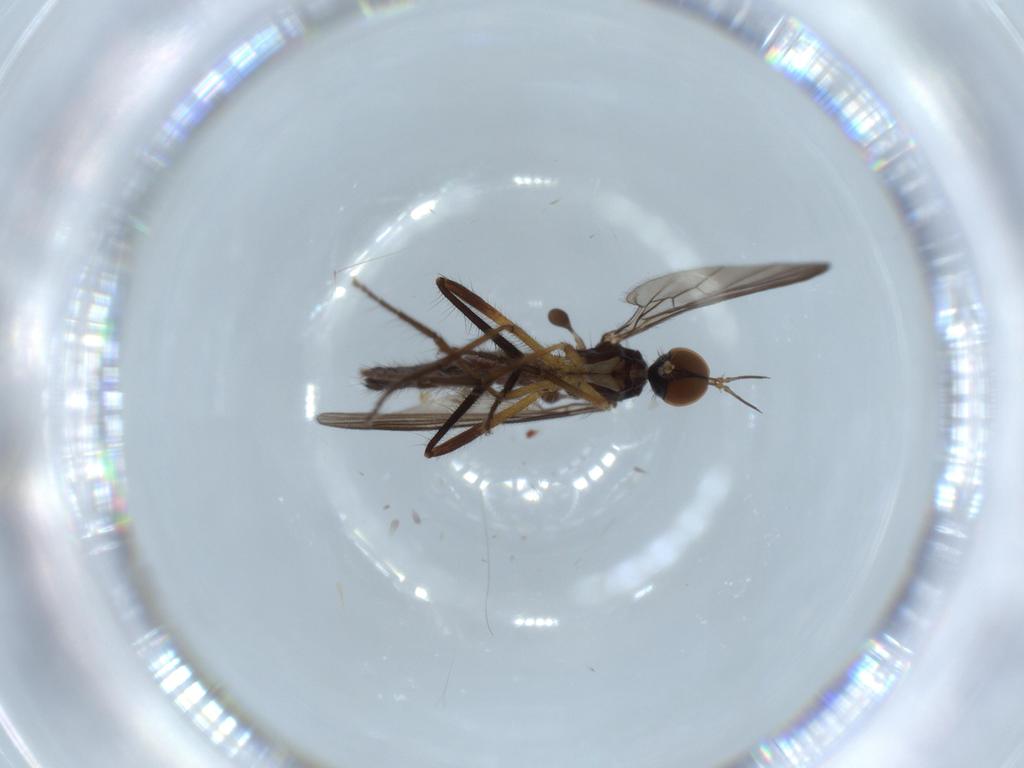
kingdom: Animalia
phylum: Arthropoda
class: Insecta
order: Diptera
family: Empididae
